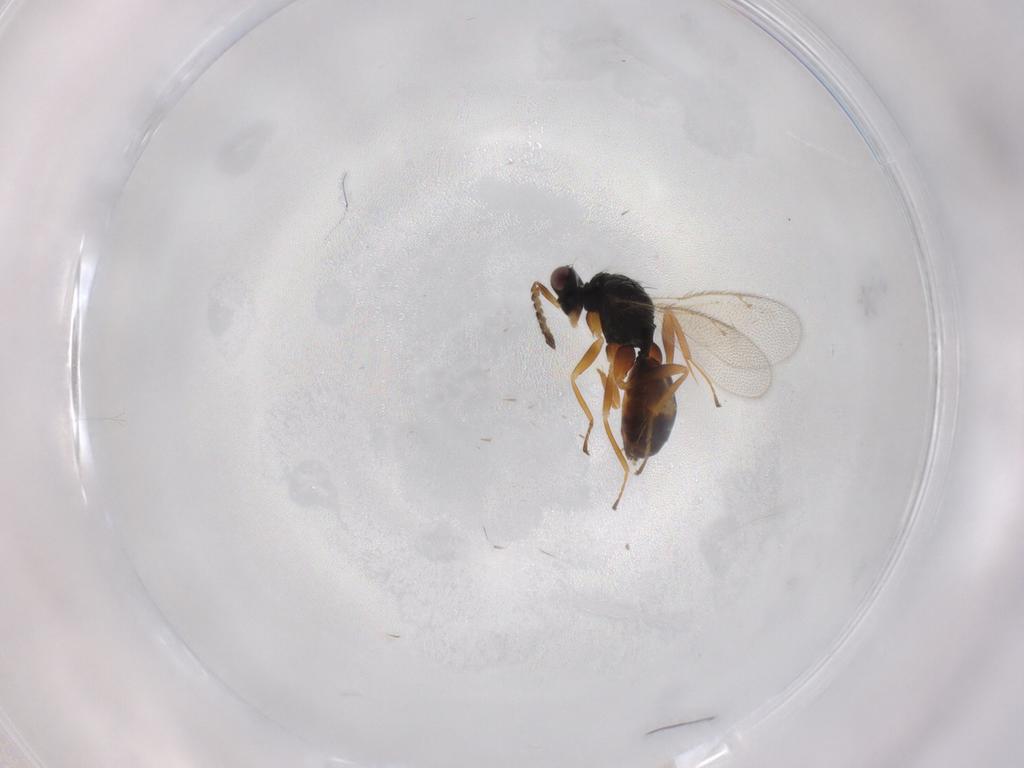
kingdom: Animalia
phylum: Arthropoda
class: Insecta
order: Hymenoptera
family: Eulophidae
